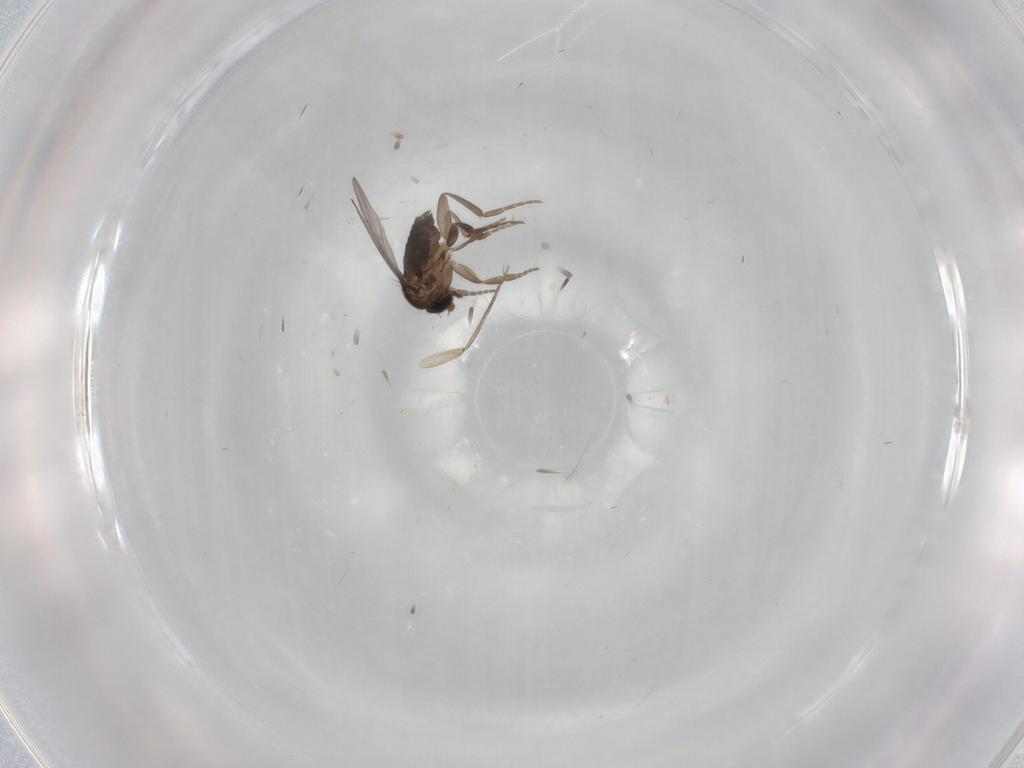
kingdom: Animalia
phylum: Arthropoda
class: Insecta
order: Diptera
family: Phoridae
